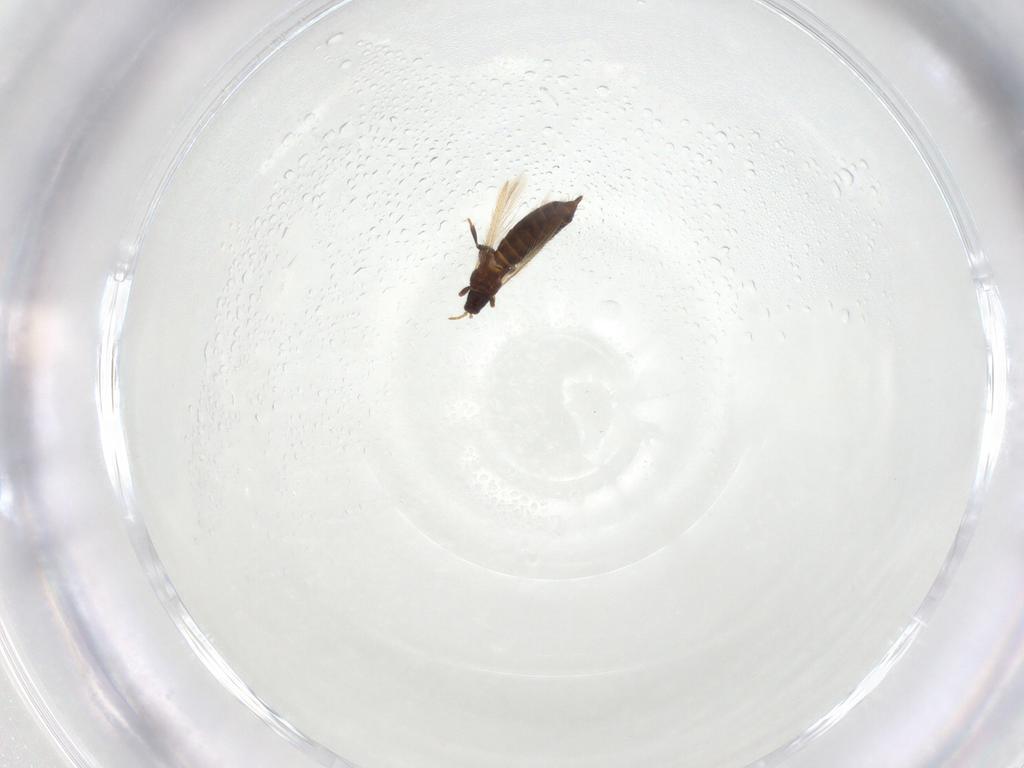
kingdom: Animalia
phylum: Arthropoda
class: Insecta
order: Thysanoptera
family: Thripidae
